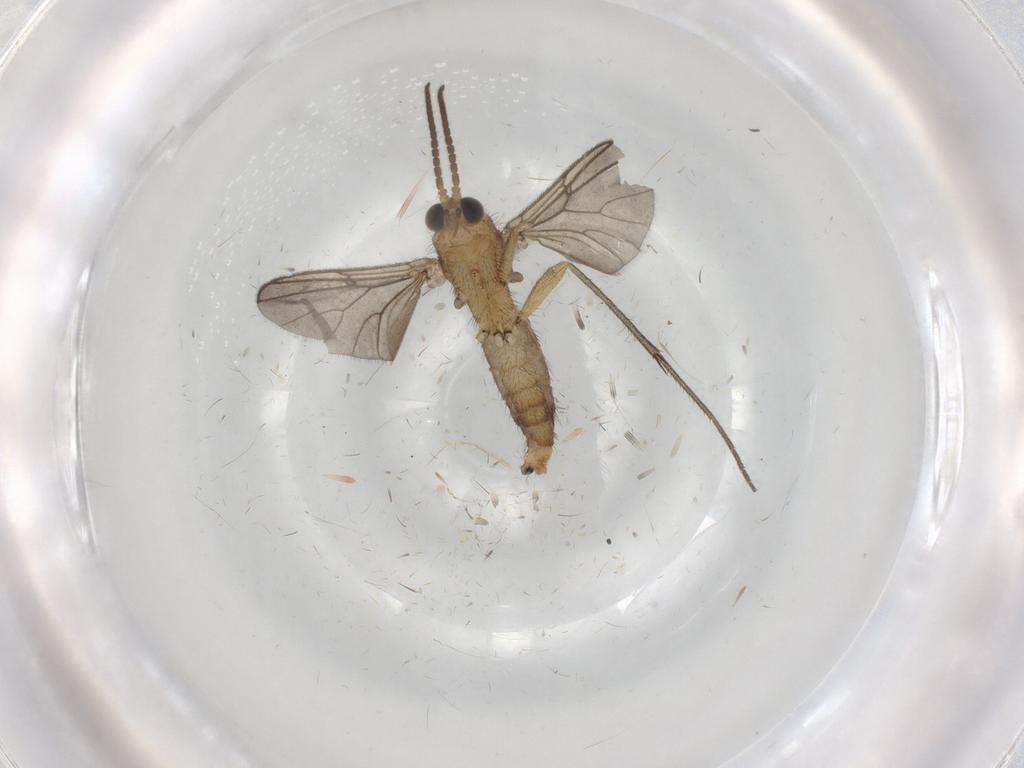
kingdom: Animalia
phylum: Arthropoda
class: Insecta
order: Diptera
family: Mycetophilidae
